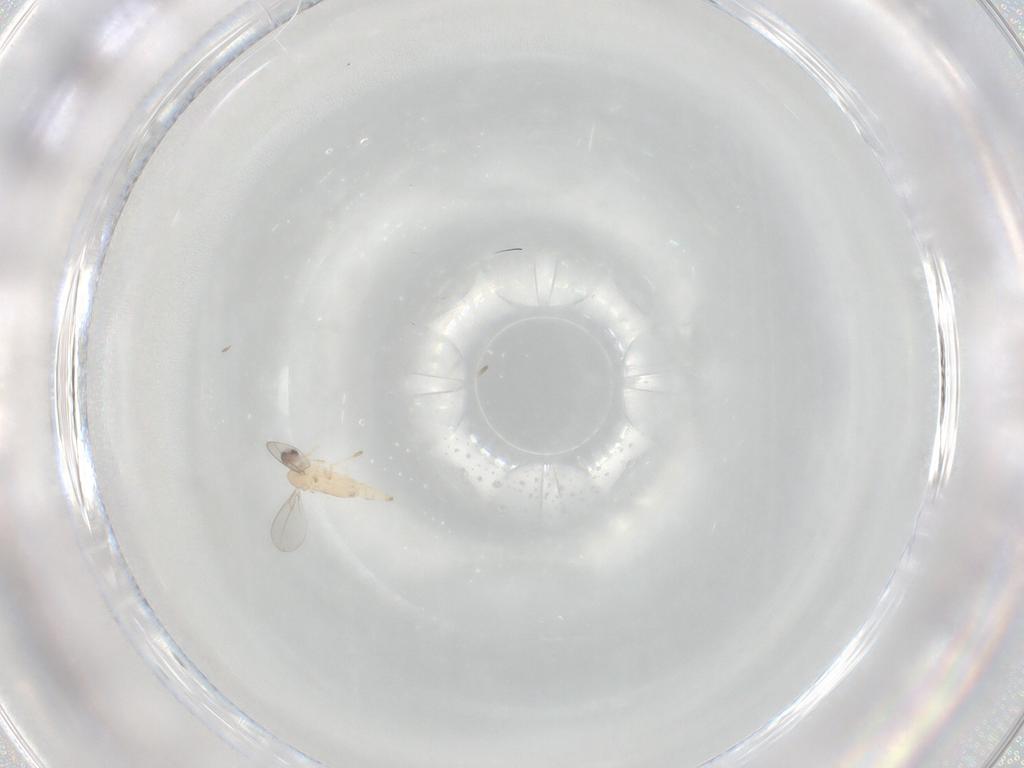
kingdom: Animalia
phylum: Arthropoda
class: Insecta
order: Diptera
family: Cecidomyiidae
